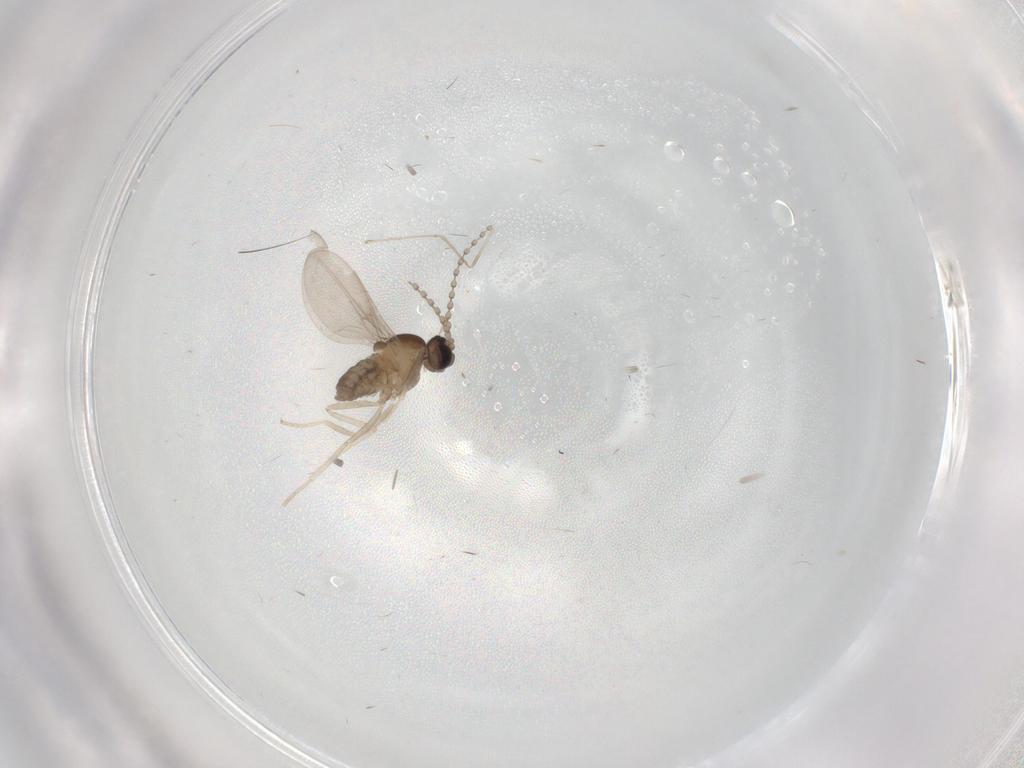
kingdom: Animalia
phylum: Arthropoda
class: Insecta
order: Diptera
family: Cecidomyiidae
